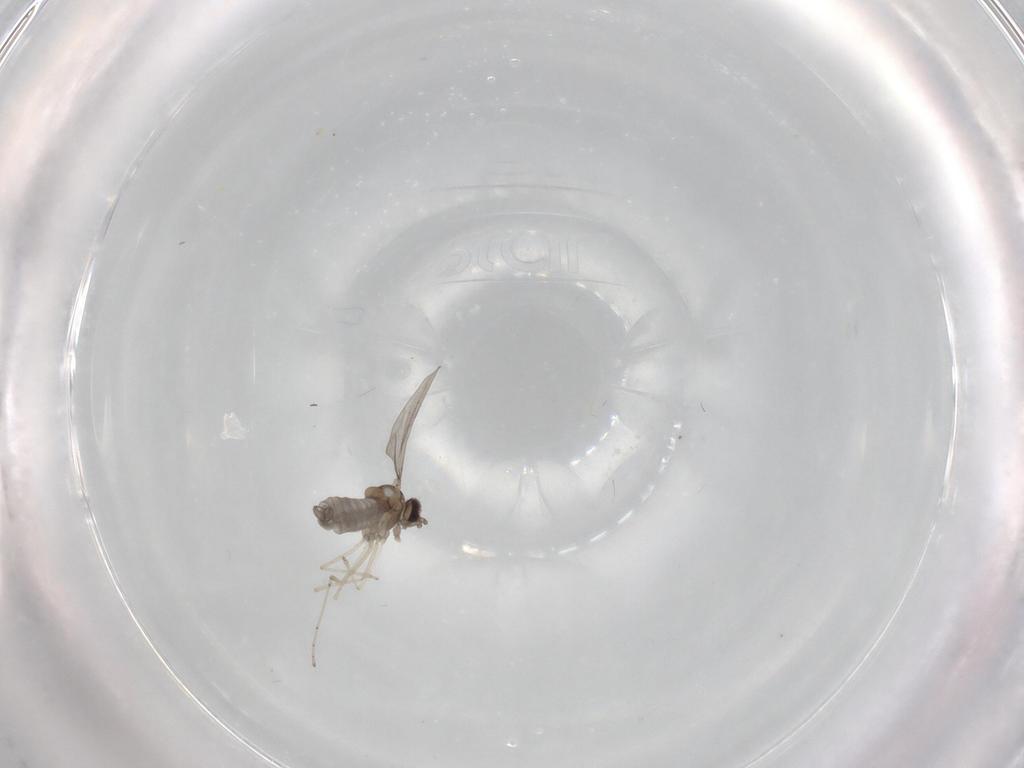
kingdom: Animalia
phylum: Arthropoda
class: Insecta
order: Diptera
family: Cecidomyiidae
